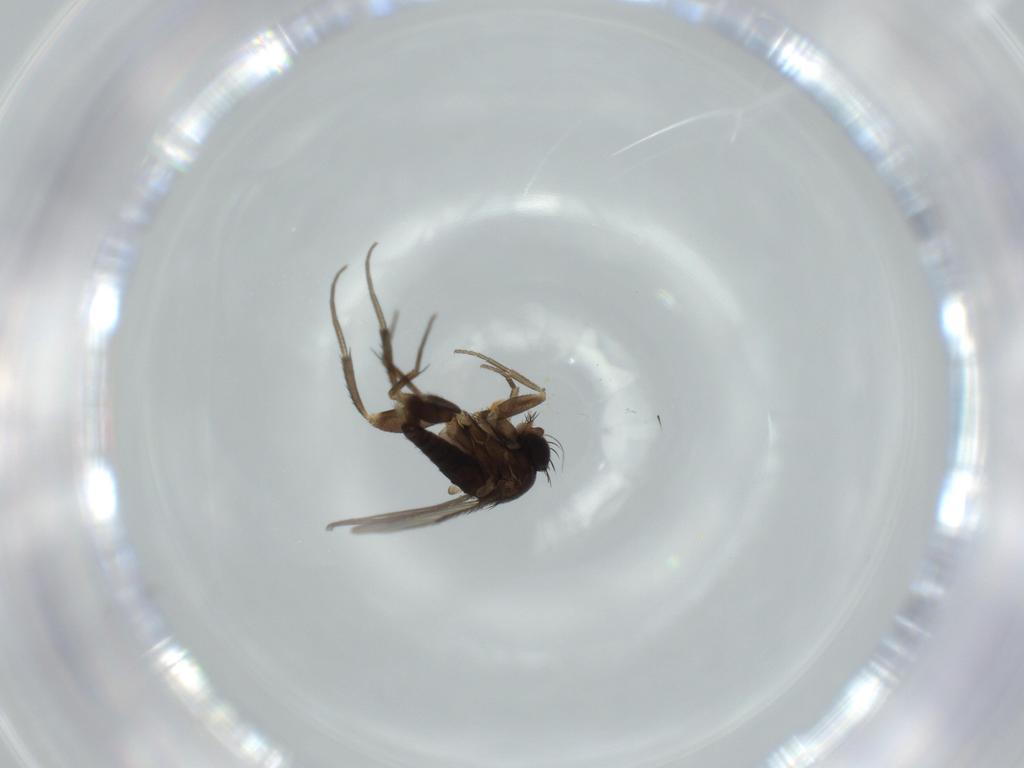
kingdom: Animalia
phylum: Arthropoda
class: Insecta
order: Diptera
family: Phoridae
